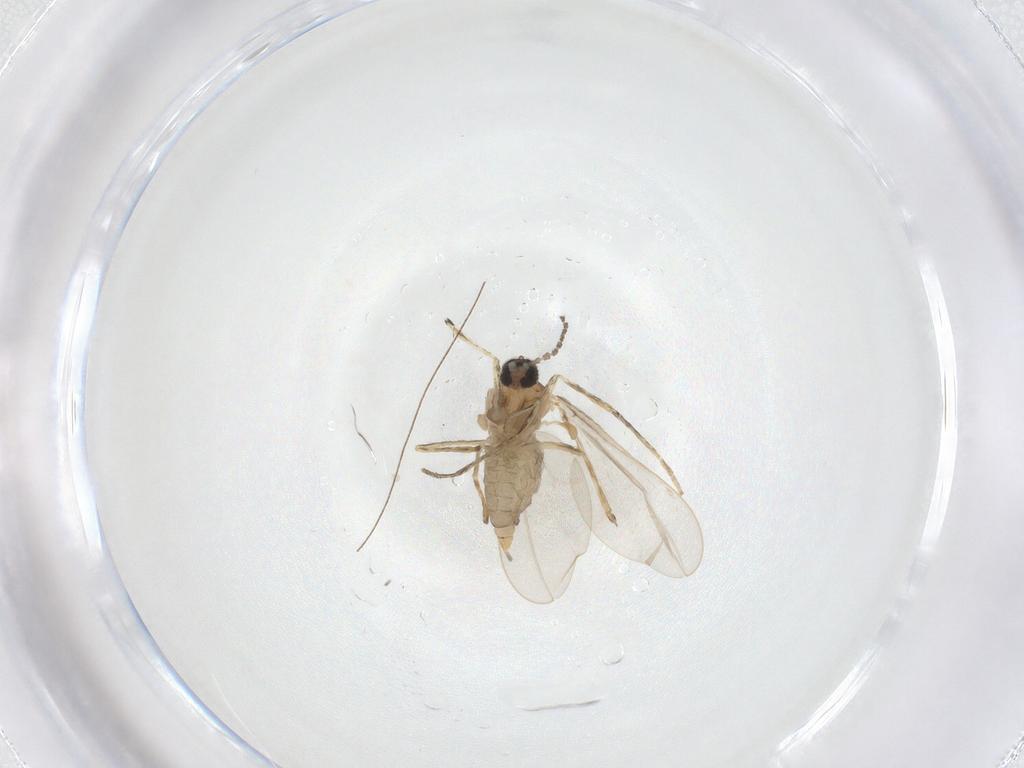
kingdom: Animalia
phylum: Arthropoda
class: Insecta
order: Diptera
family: Cecidomyiidae
